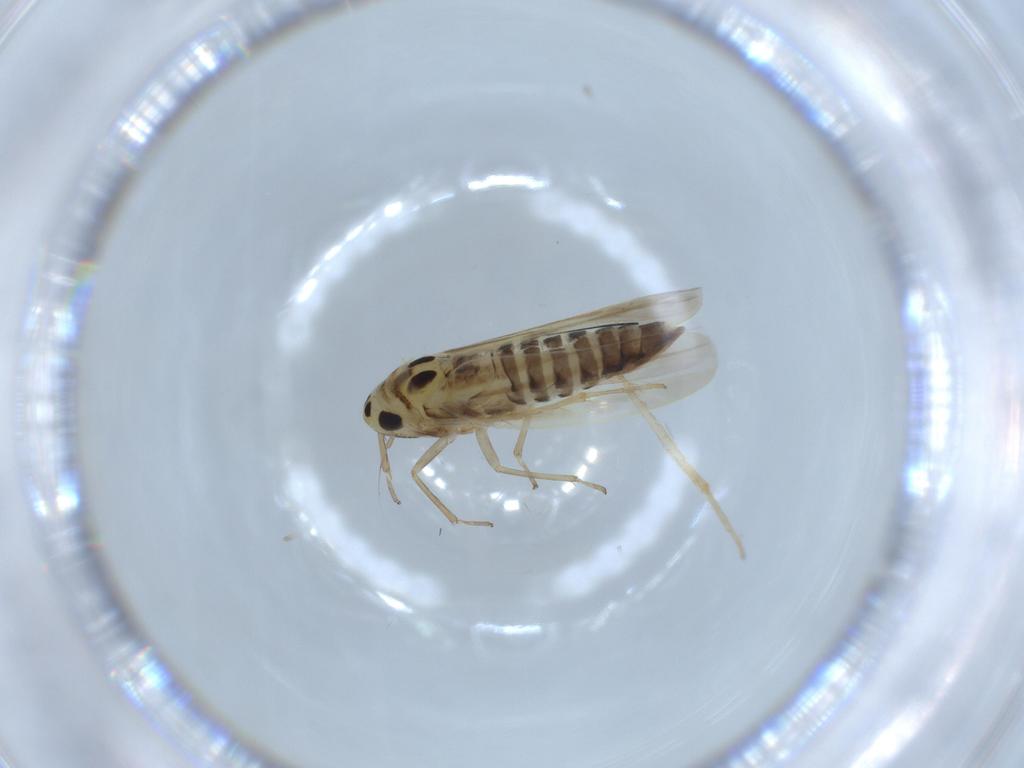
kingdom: Animalia
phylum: Arthropoda
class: Insecta
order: Hemiptera
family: Cicadellidae
